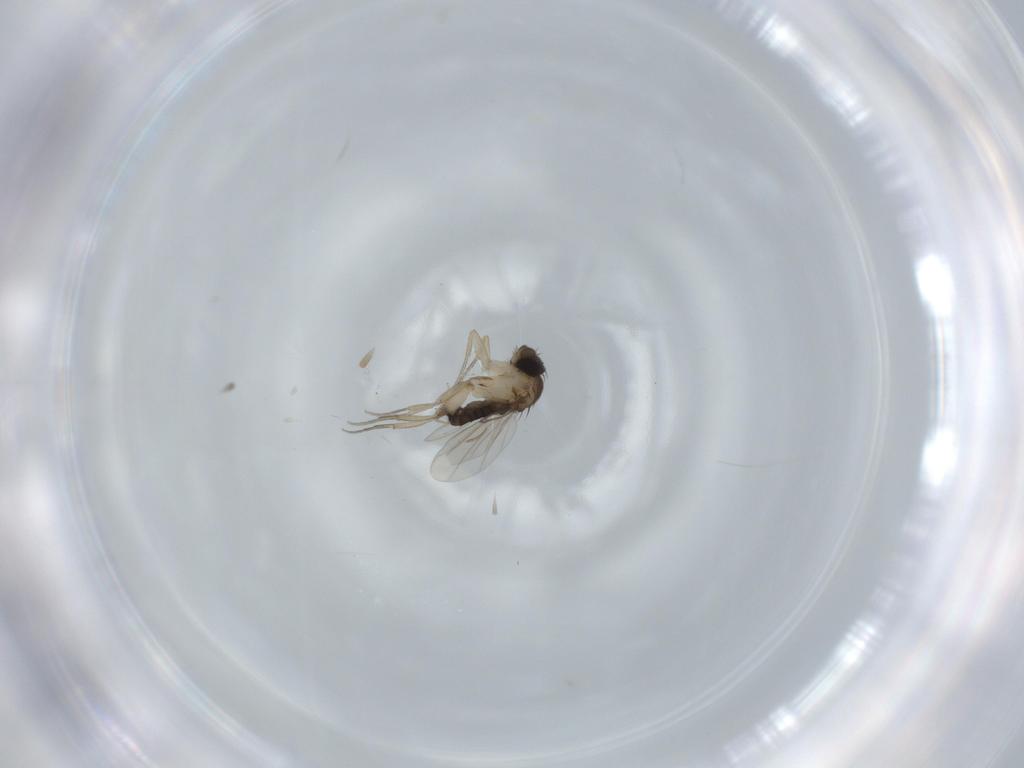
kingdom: Animalia
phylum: Arthropoda
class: Insecta
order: Diptera
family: Phoridae
